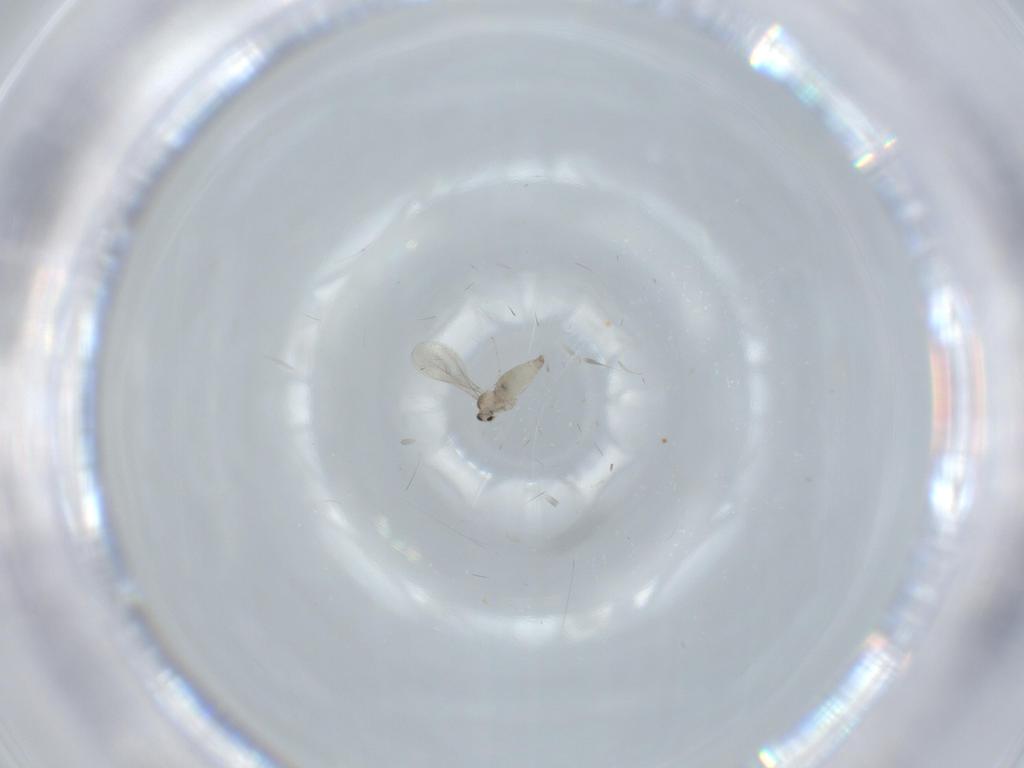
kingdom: Animalia
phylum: Arthropoda
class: Insecta
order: Diptera
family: Cecidomyiidae
